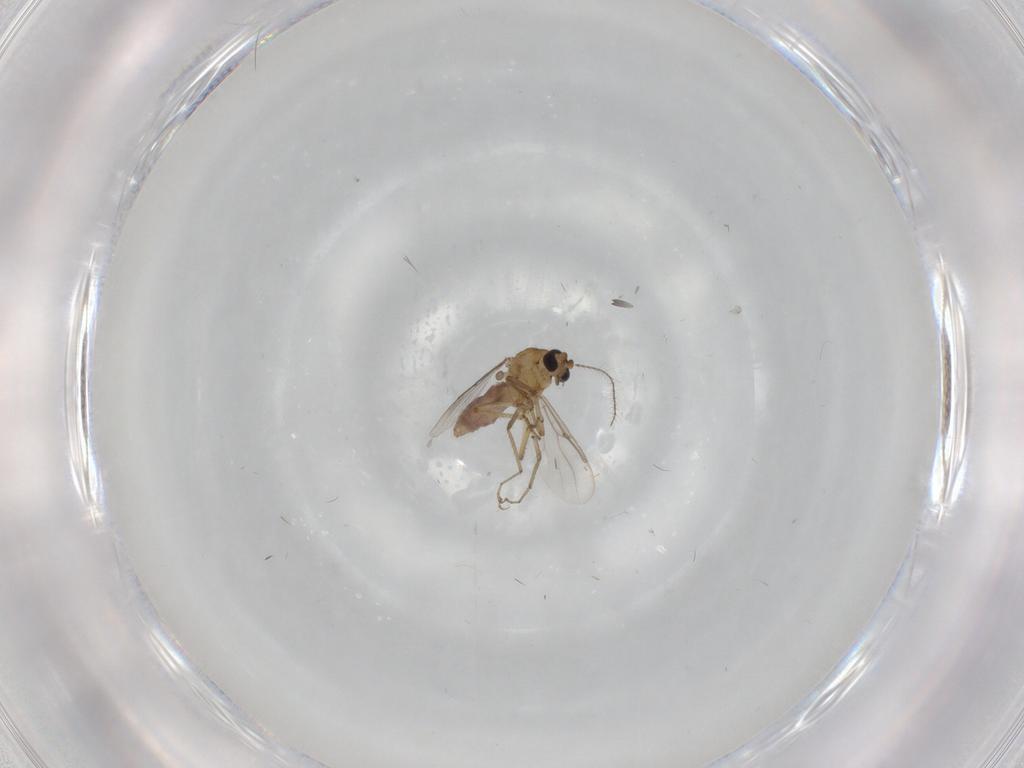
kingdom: Animalia
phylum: Arthropoda
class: Insecta
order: Diptera
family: Ceratopogonidae
